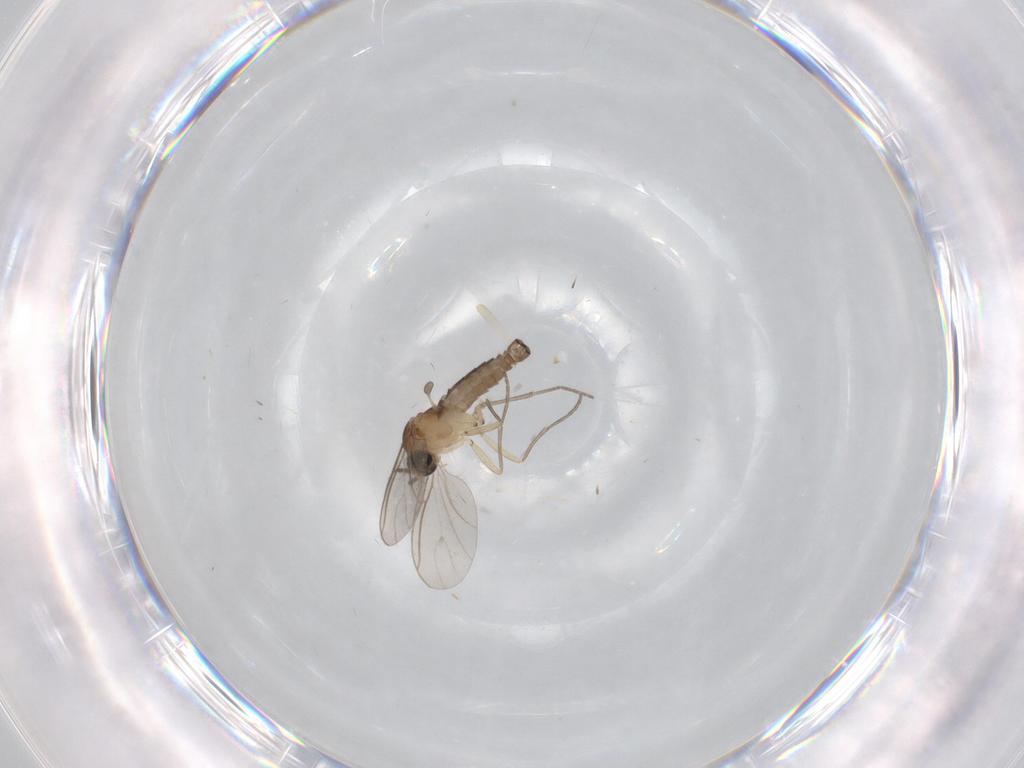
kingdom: Animalia
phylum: Arthropoda
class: Insecta
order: Diptera
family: Sciaridae
